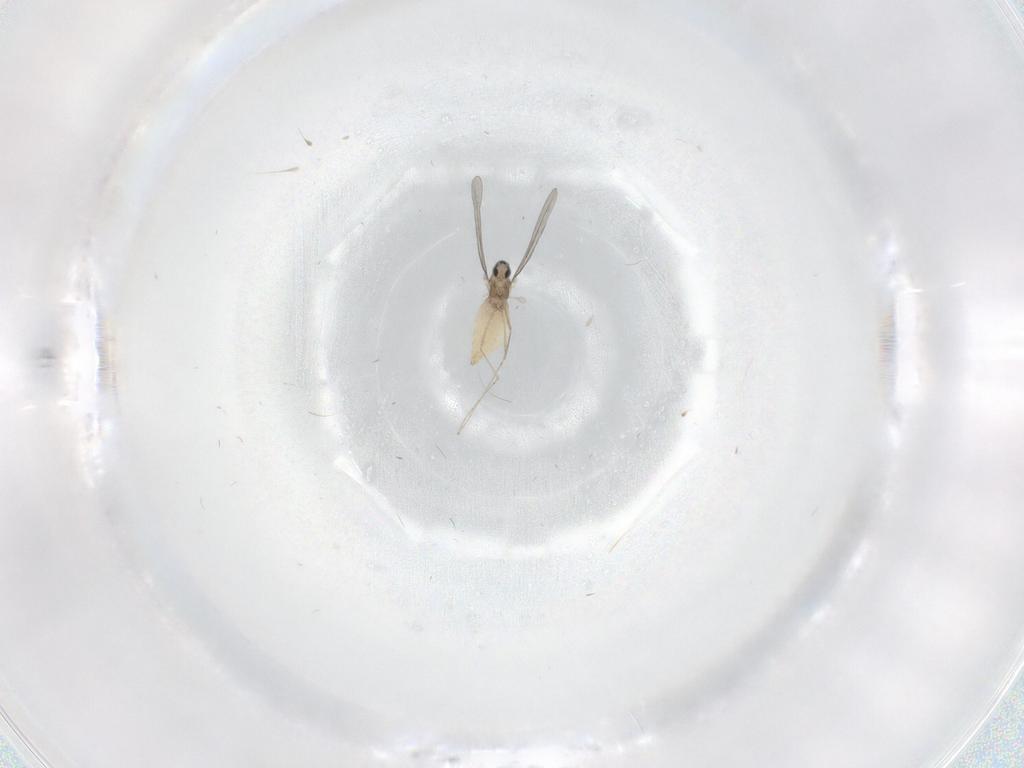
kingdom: Animalia
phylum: Arthropoda
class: Insecta
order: Diptera
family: Cecidomyiidae
